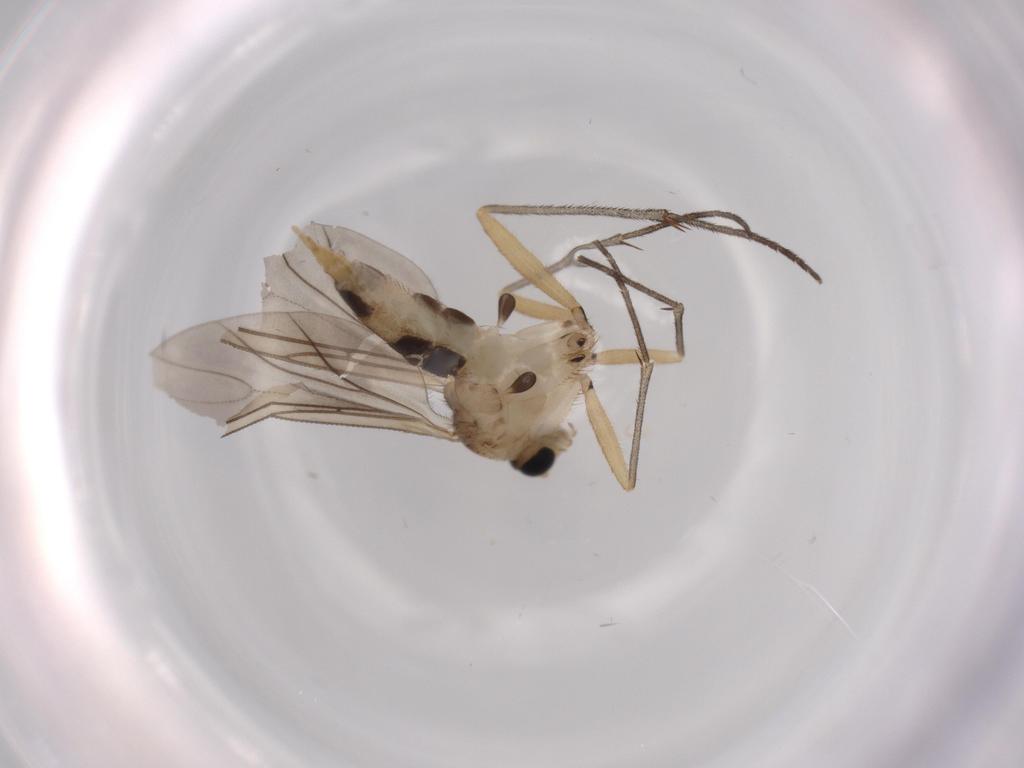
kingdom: Animalia
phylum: Arthropoda
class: Insecta
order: Diptera
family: Sciaridae
